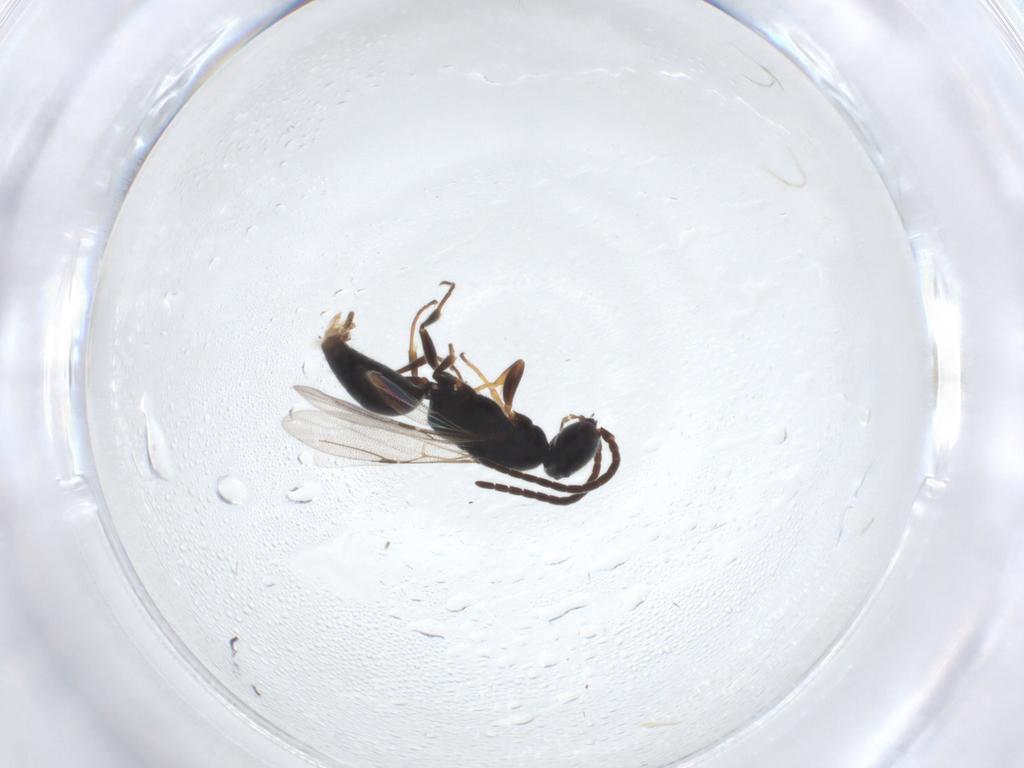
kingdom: Animalia
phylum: Arthropoda
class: Insecta
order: Hymenoptera
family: Bethylidae
